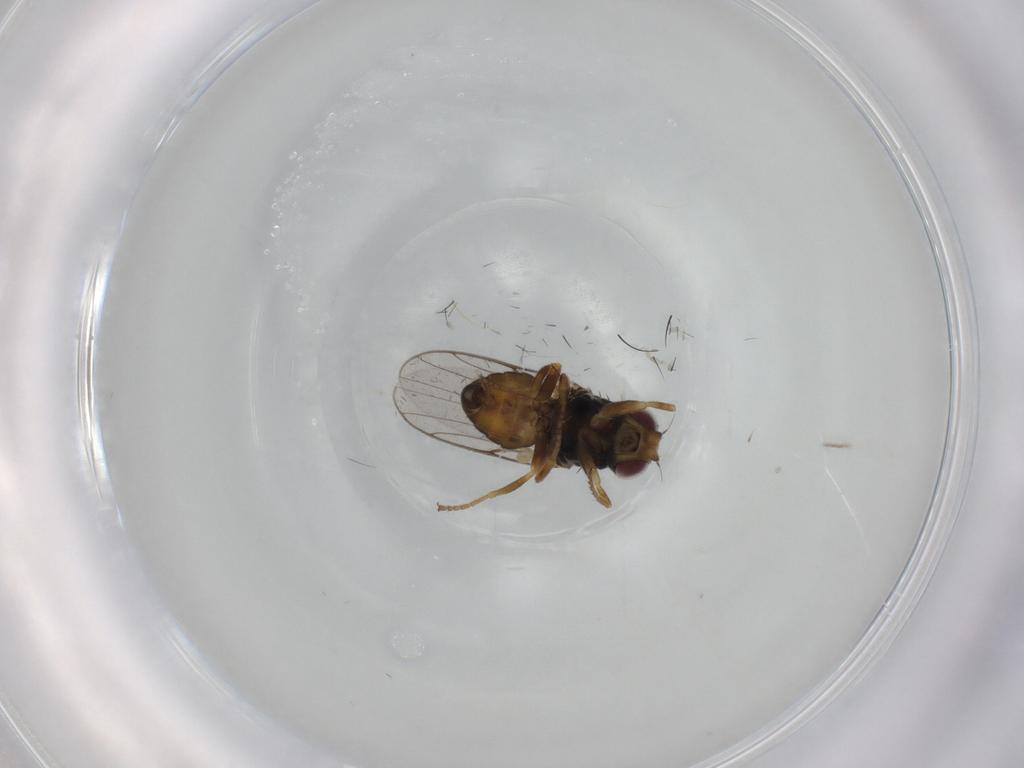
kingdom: Animalia
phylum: Arthropoda
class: Insecta
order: Diptera
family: Chloropidae
